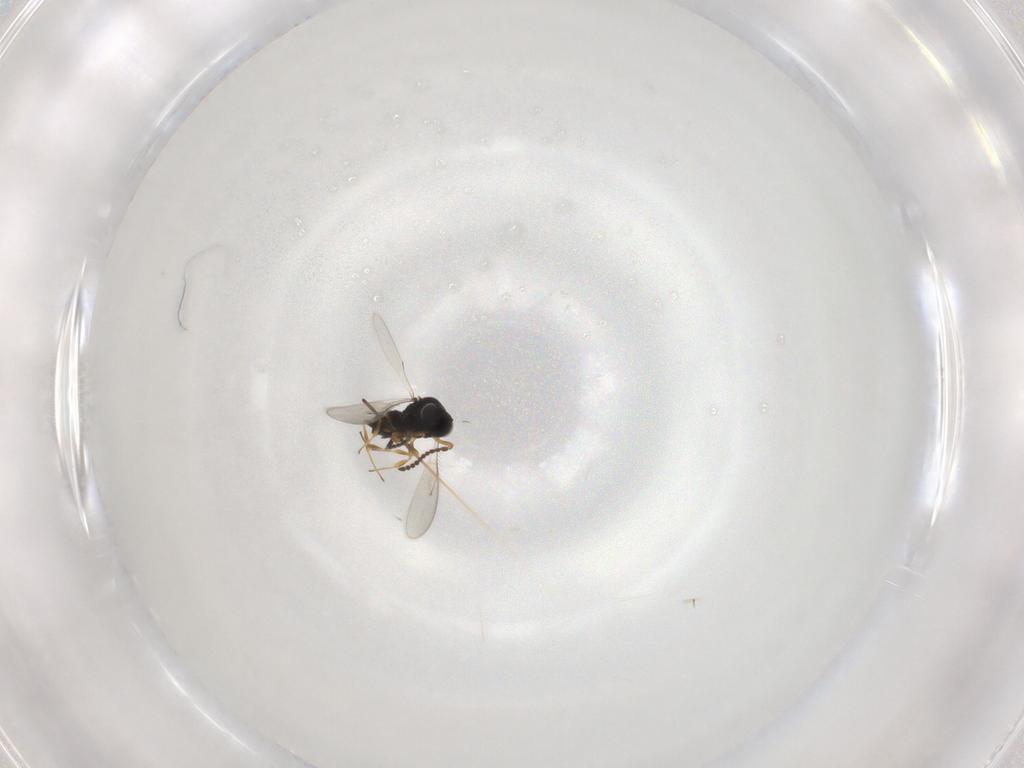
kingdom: Animalia
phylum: Arthropoda
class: Insecta
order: Hymenoptera
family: Scelionidae
